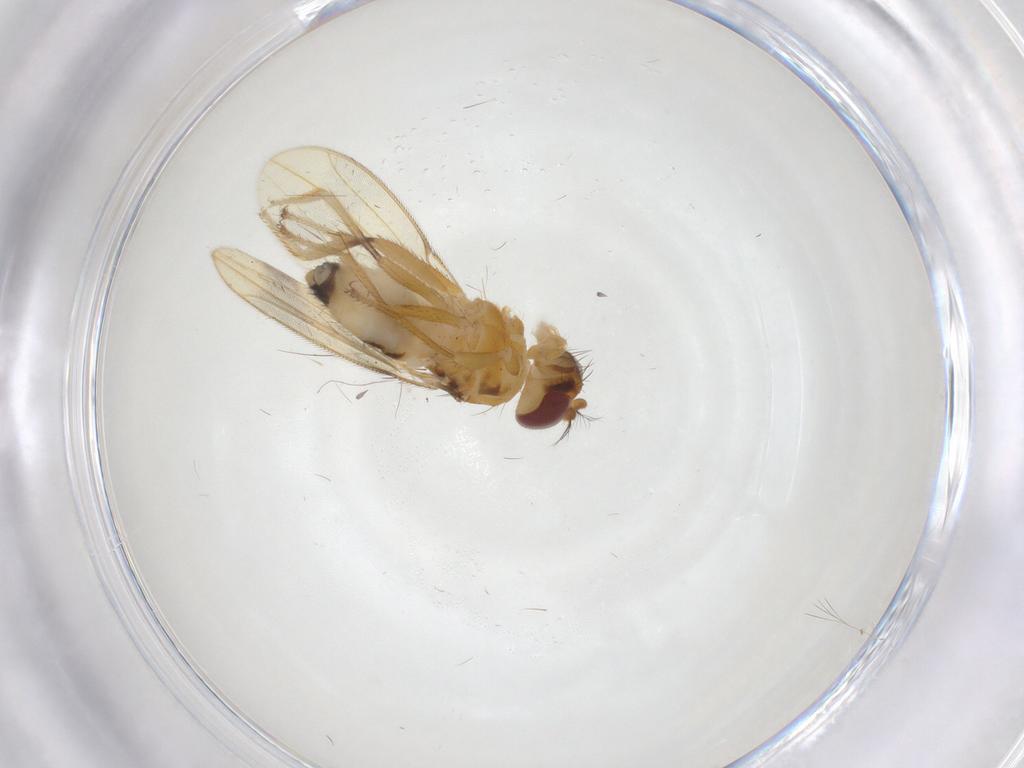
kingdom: Animalia
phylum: Arthropoda
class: Insecta
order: Diptera
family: Periscelididae
